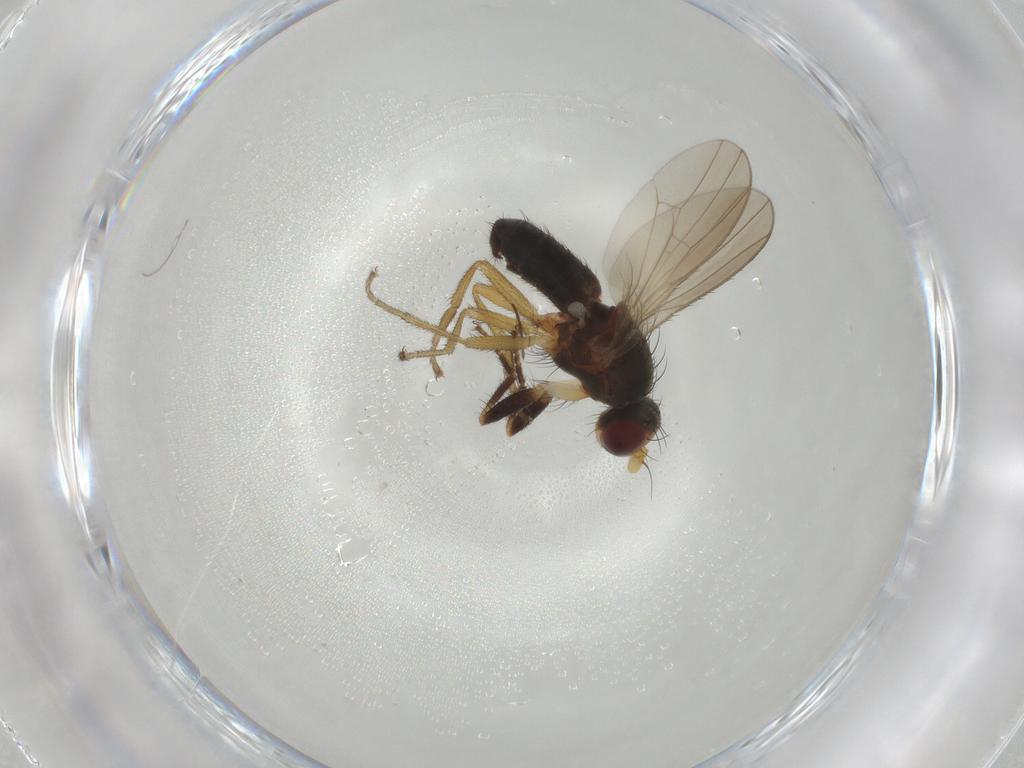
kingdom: Animalia
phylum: Arthropoda
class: Insecta
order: Diptera
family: Heleomyzidae
